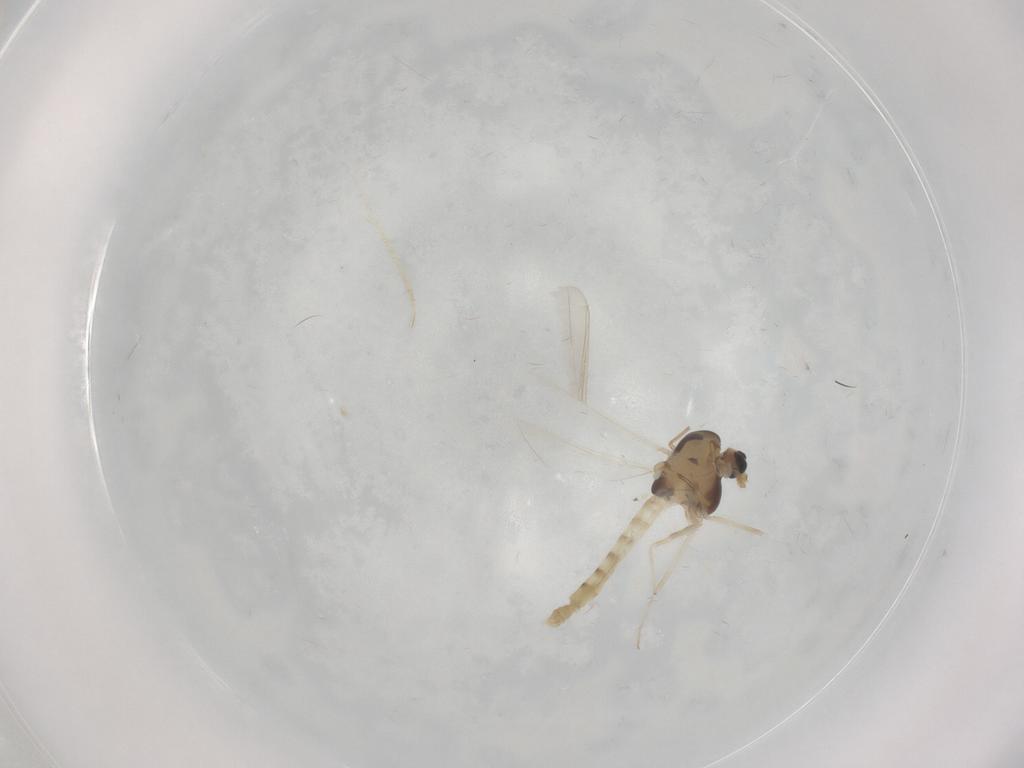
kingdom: Animalia
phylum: Arthropoda
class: Insecta
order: Diptera
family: Chironomidae
